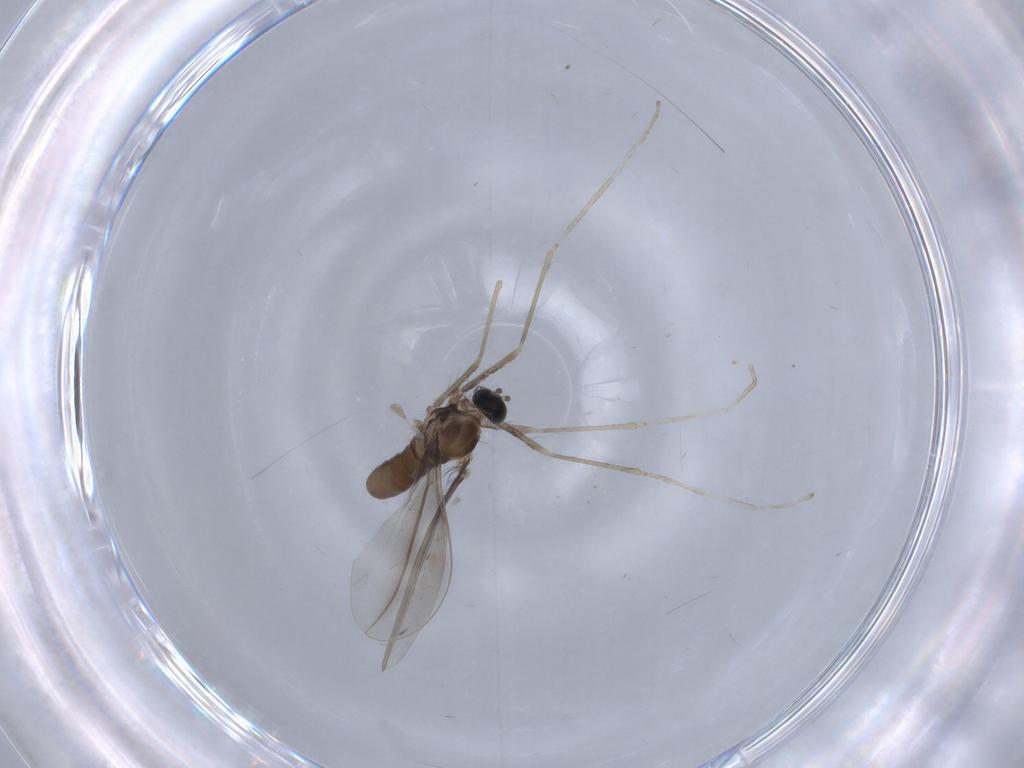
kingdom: Animalia
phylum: Arthropoda
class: Insecta
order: Diptera
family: Cecidomyiidae
